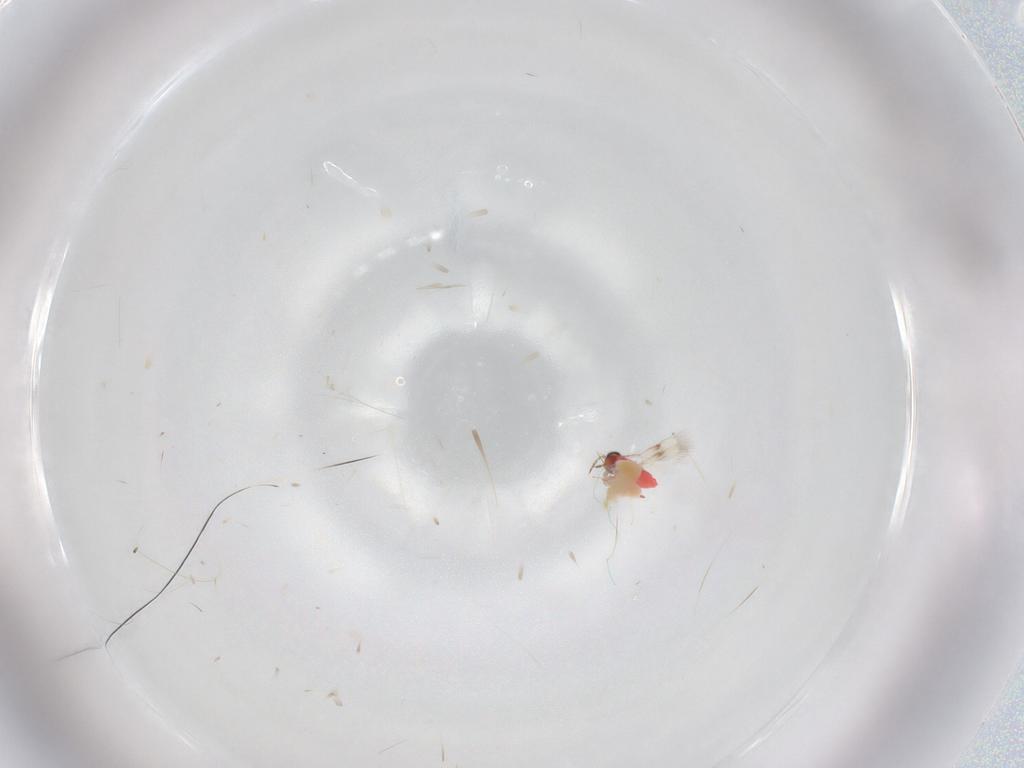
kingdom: Animalia
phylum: Arthropoda
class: Insecta
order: Hymenoptera
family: Trichogrammatidae
